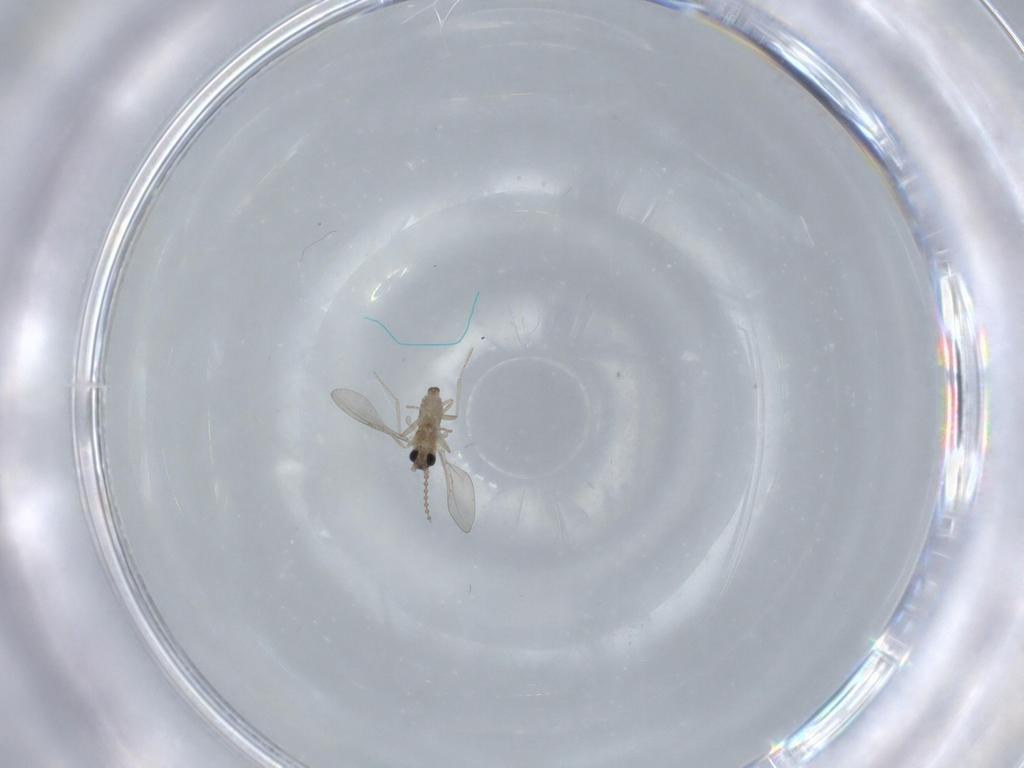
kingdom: Animalia
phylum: Arthropoda
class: Insecta
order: Diptera
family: Cecidomyiidae
